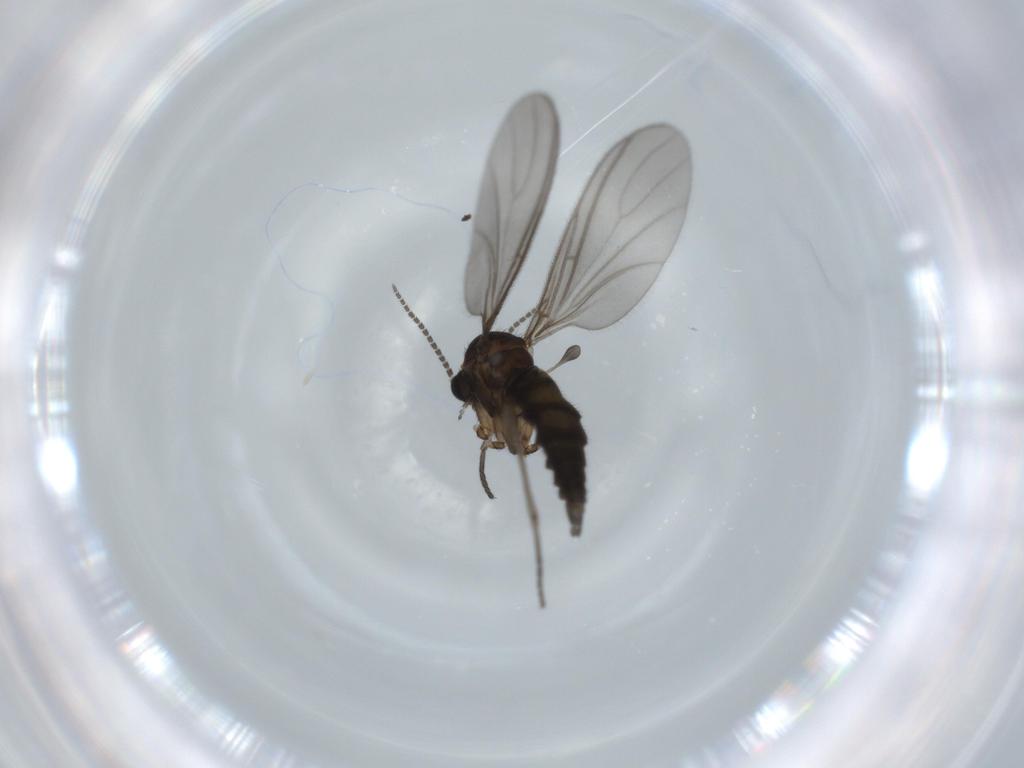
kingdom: Animalia
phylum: Arthropoda
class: Insecta
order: Diptera
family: Sciaridae
